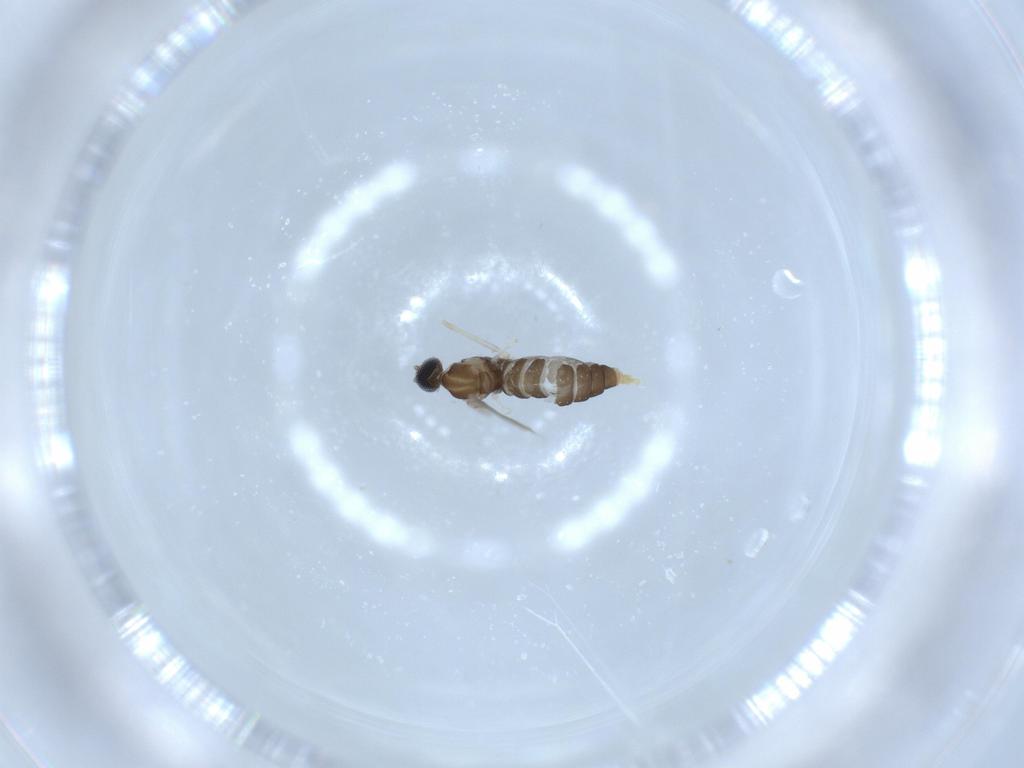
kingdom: Animalia
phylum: Arthropoda
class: Insecta
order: Diptera
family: Cecidomyiidae
